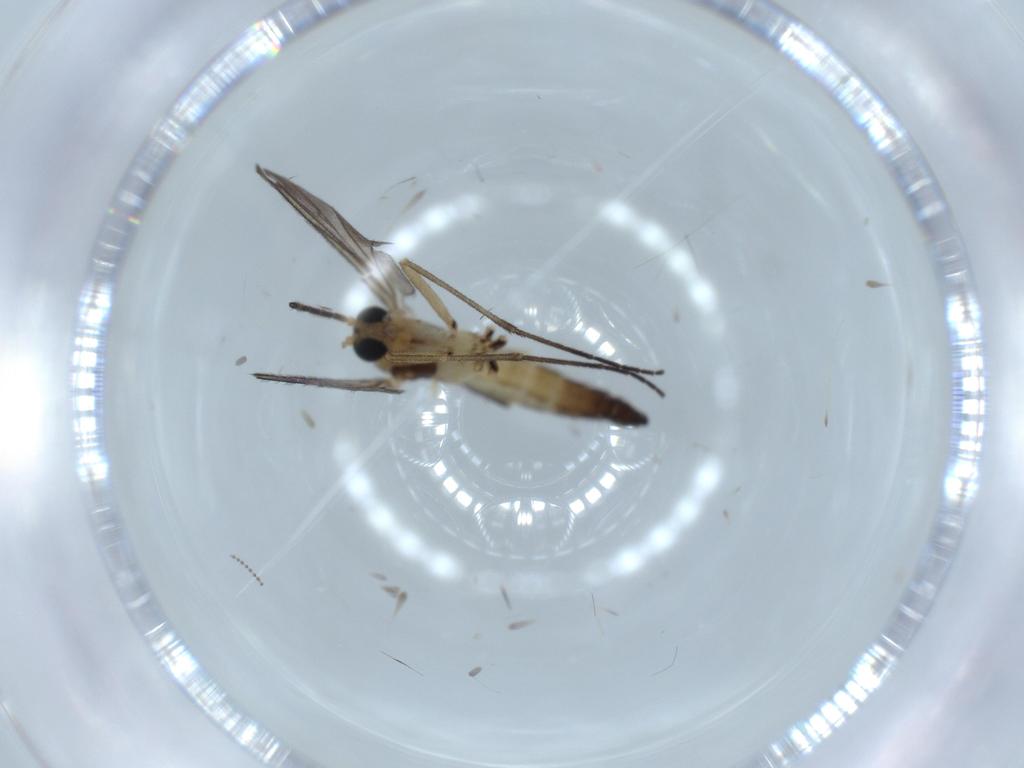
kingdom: Animalia
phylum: Arthropoda
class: Insecta
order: Diptera
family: Sciaridae
